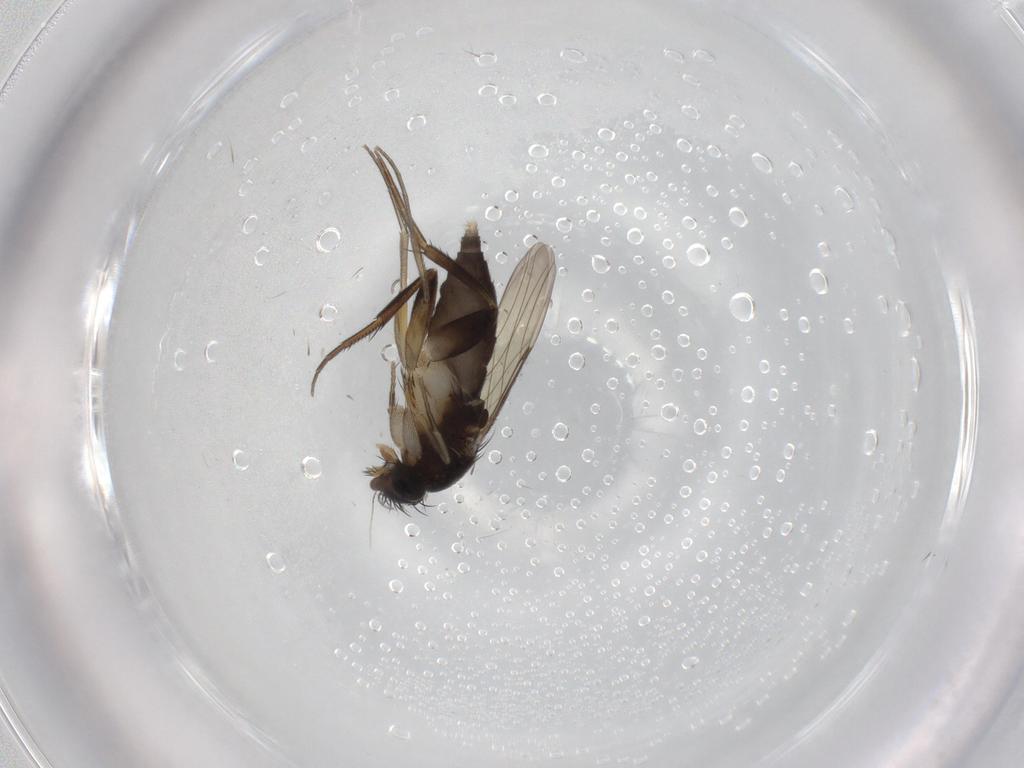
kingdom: Animalia
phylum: Arthropoda
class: Insecta
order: Diptera
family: Phoridae
